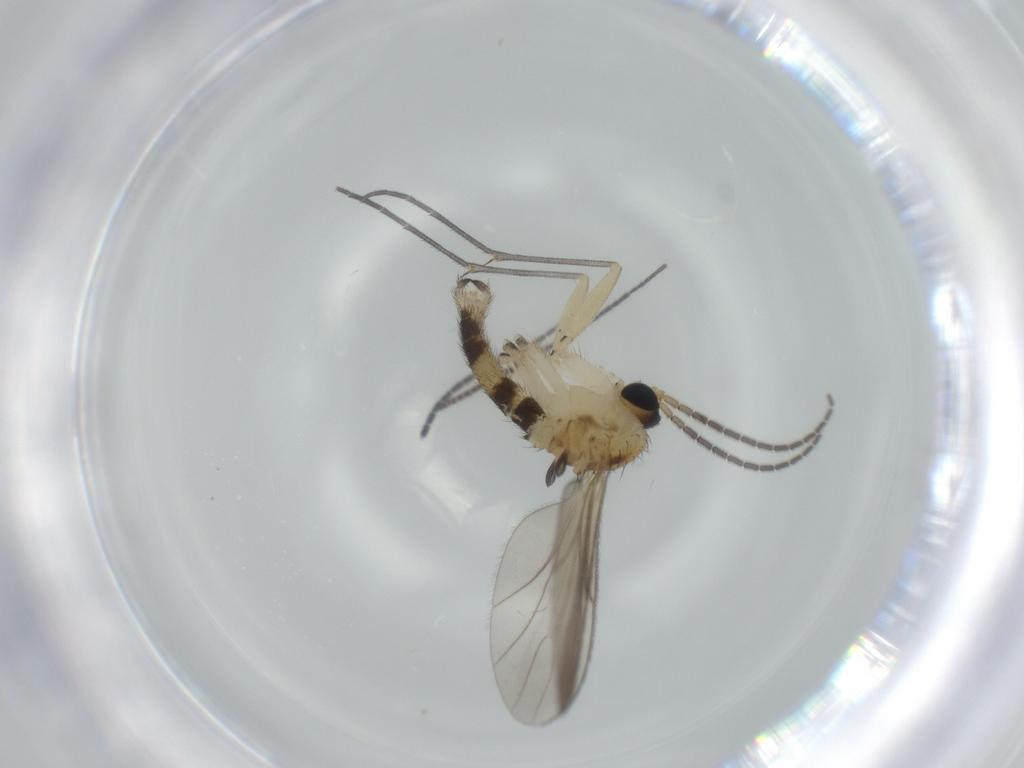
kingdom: Animalia
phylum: Arthropoda
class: Insecta
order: Diptera
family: Sciaridae
